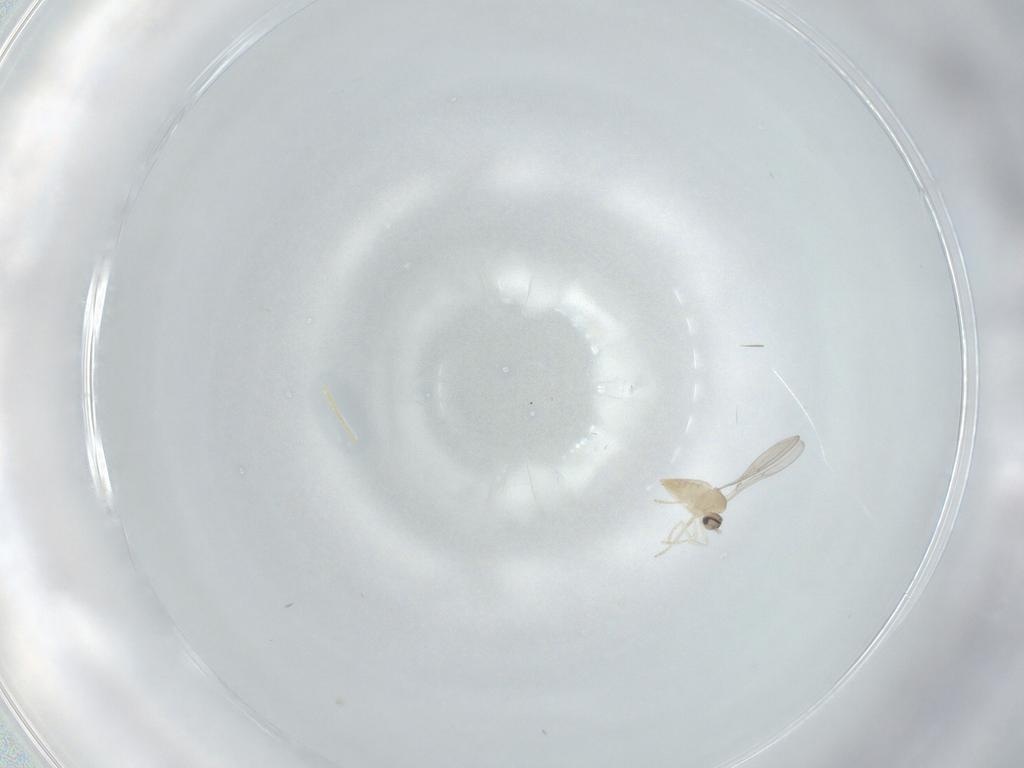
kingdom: Animalia
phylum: Arthropoda
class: Insecta
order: Diptera
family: Cecidomyiidae
